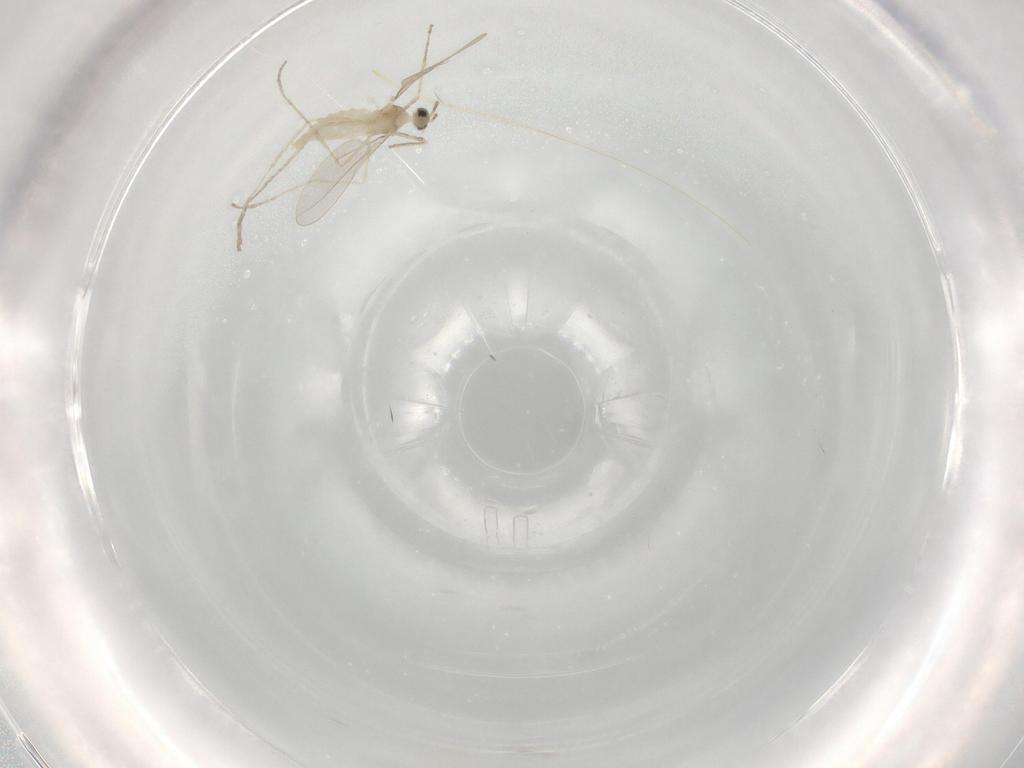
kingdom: Animalia
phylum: Arthropoda
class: Insecta
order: Diptera
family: Cecidomyiidae
